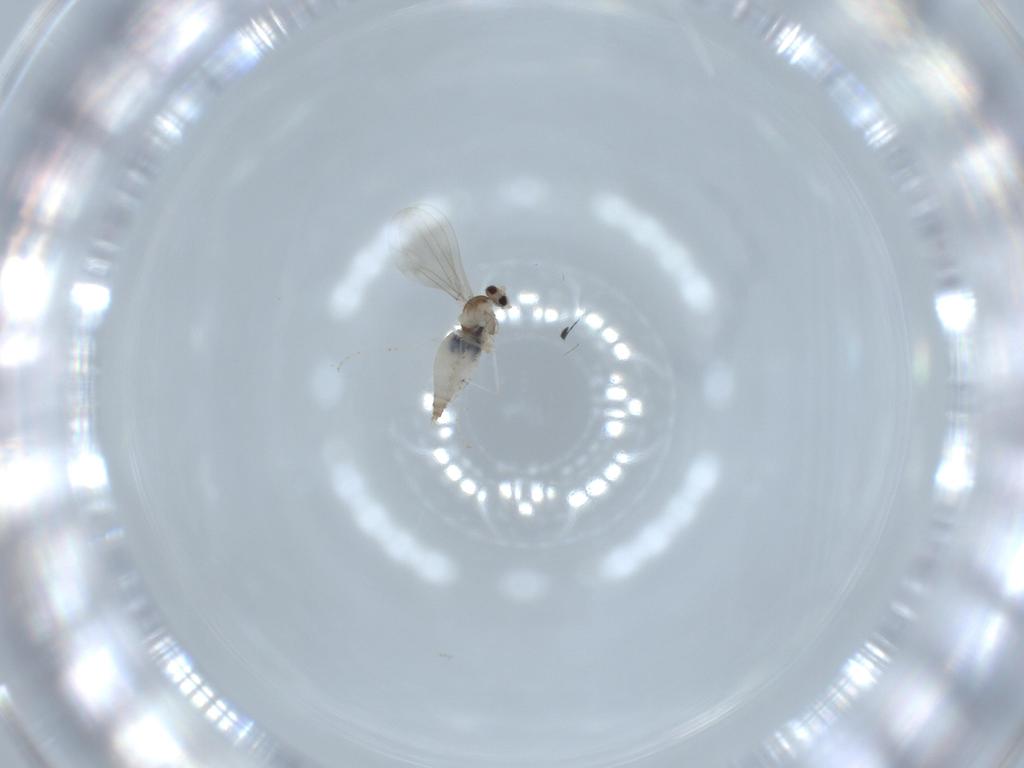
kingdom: Animalia
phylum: Arthropoda
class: Insecta
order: Diptera
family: Cecidomyiidae
